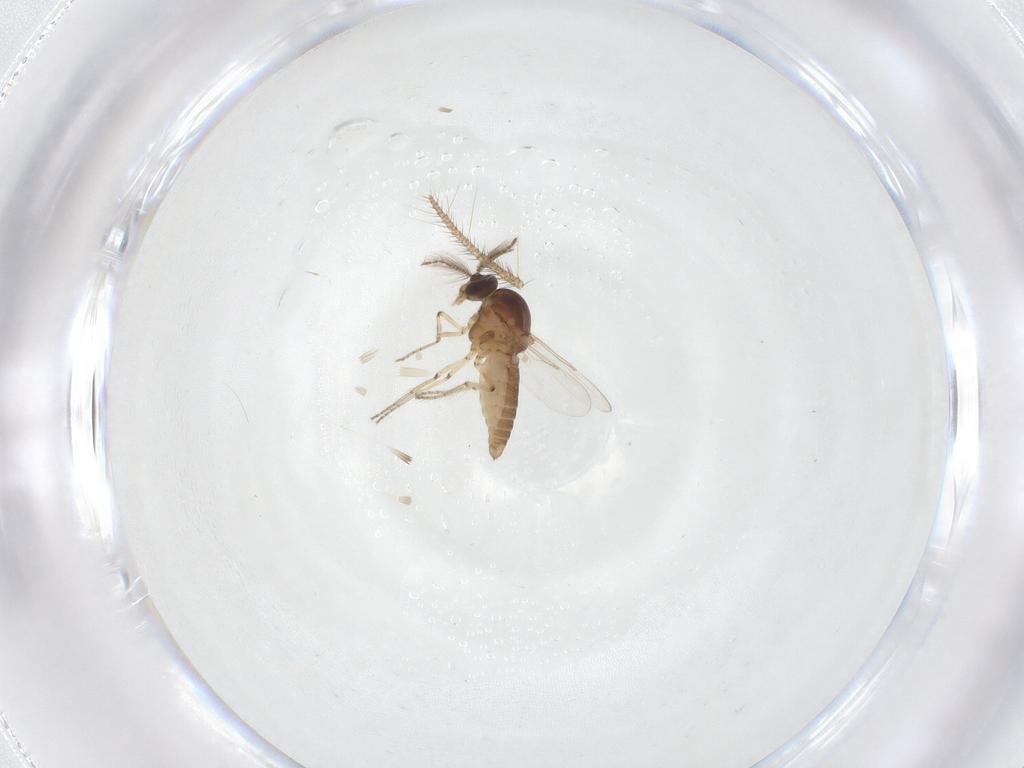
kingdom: Animalia
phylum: Arthropoda
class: Insecta
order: Diptera
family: Ceratopogonidae
